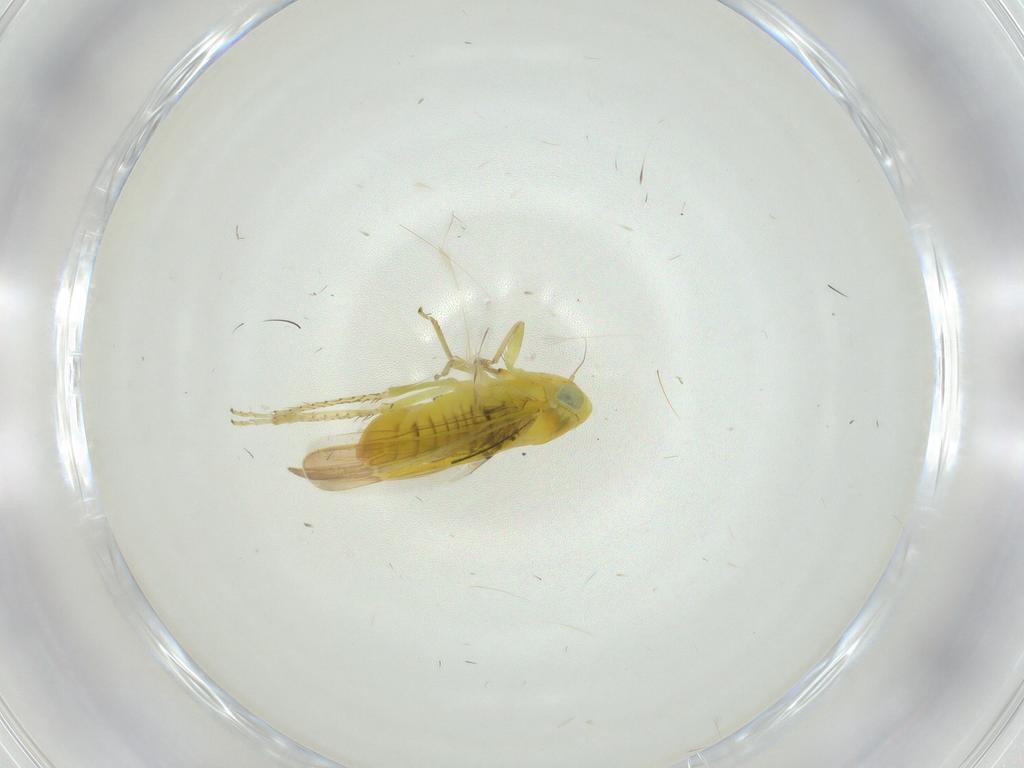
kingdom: Animalia
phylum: Arthropoda
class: Insecta
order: Hemiptera
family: Cicadellidae
